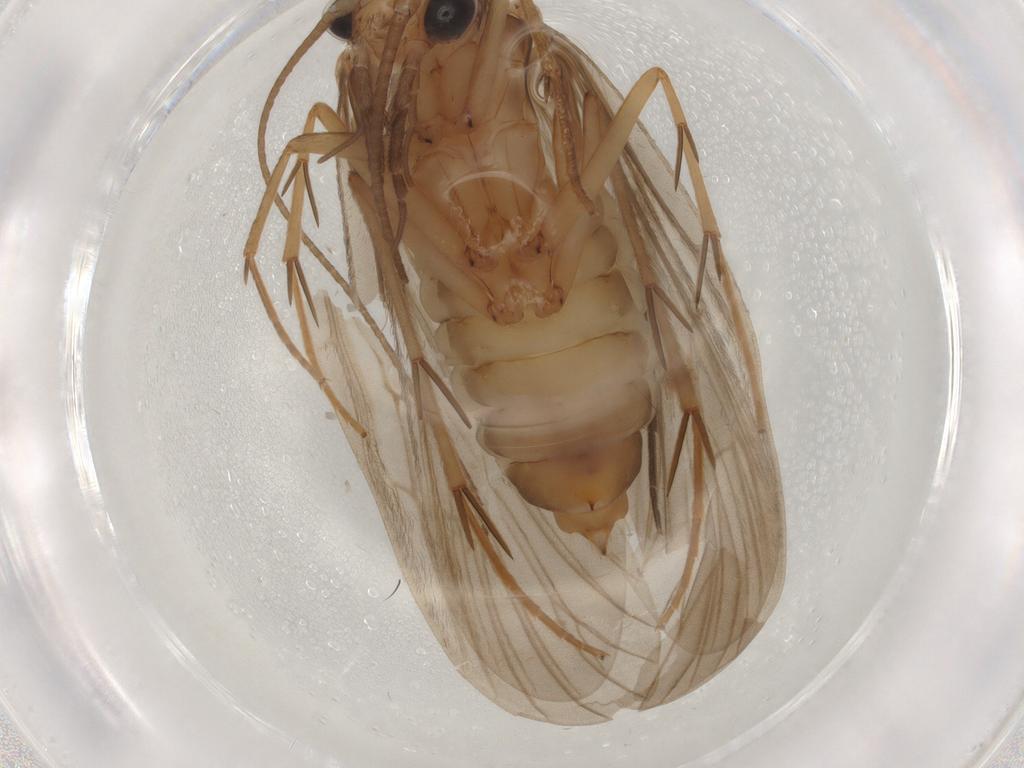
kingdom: Animalia
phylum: Arthropoda
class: Insecta
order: Trichoptera
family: Philopotamidae
